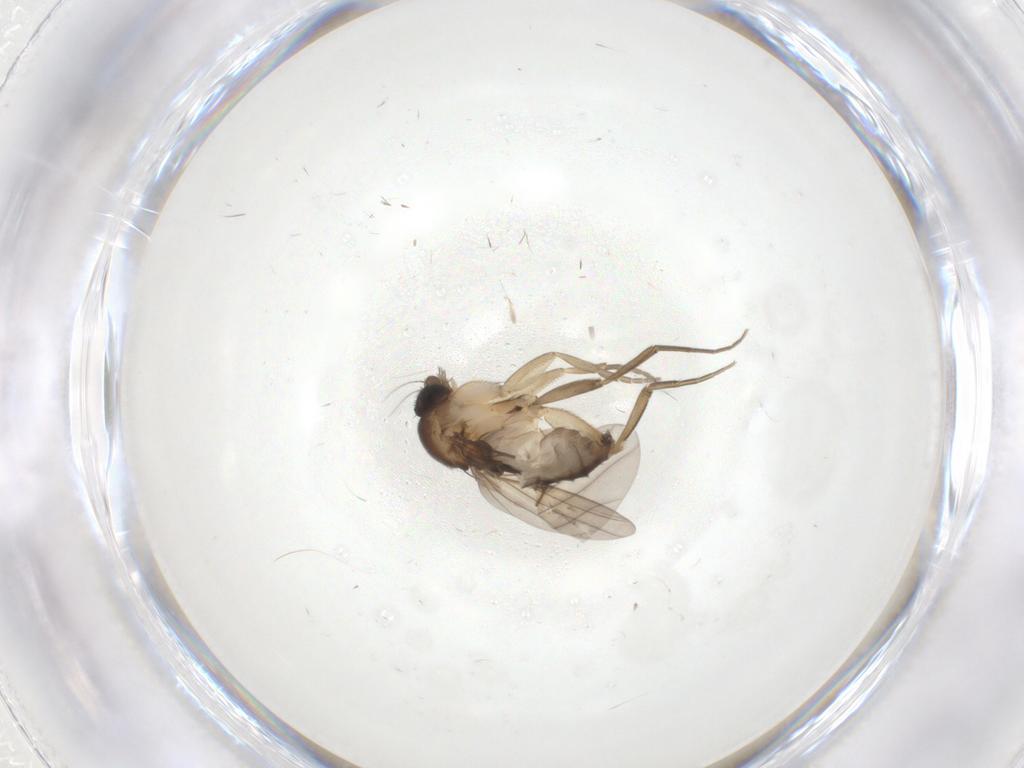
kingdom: Animalia
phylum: Arthropoda
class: Insecta
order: Diptera
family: Phoridae
